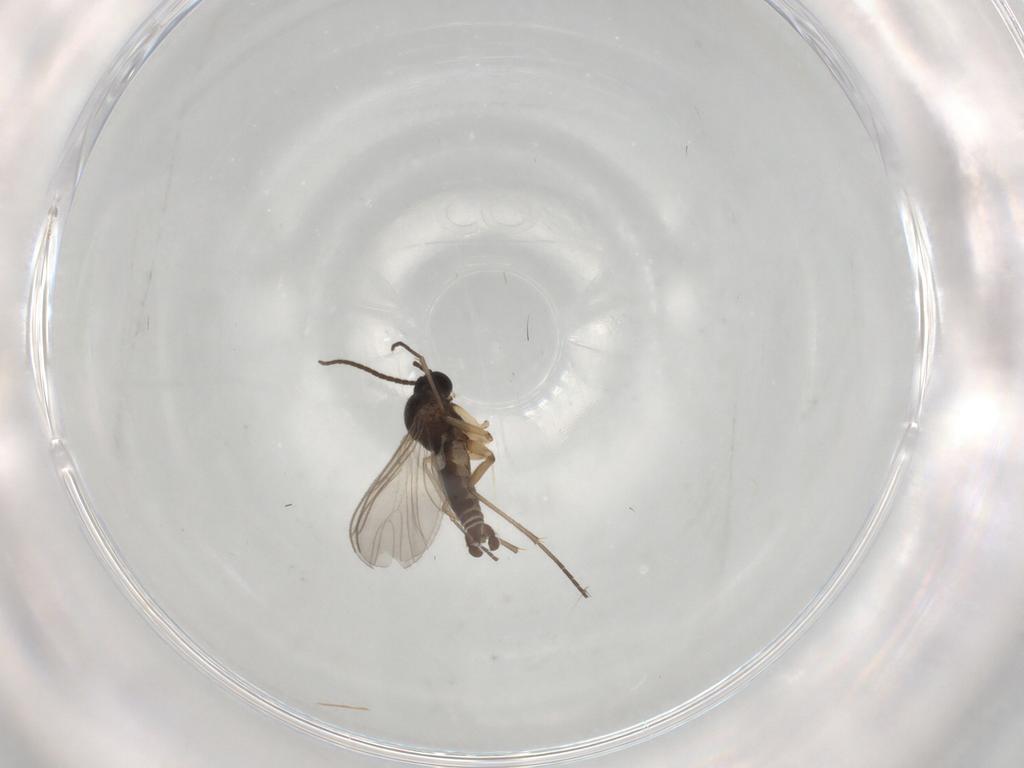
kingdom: Animalia
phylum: Arthropoda
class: Insecta
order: Diptera
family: Sciaridae
